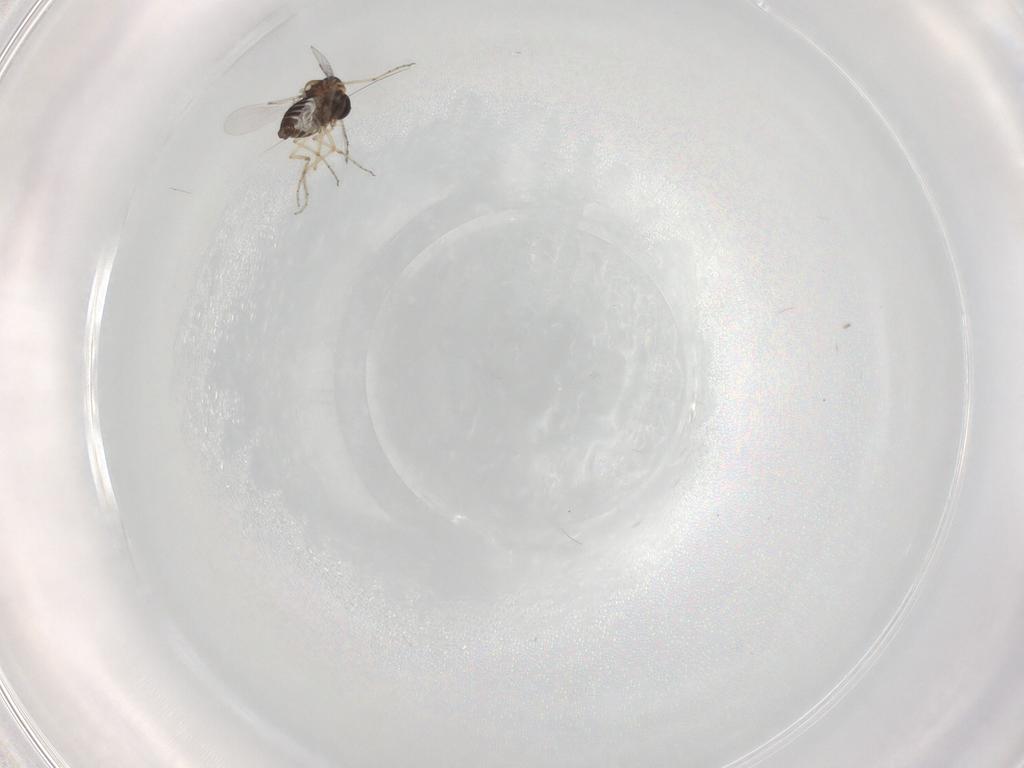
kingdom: Animalia
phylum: Arthropoda
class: Insecta
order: Diptera
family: Ceratopogonidae
